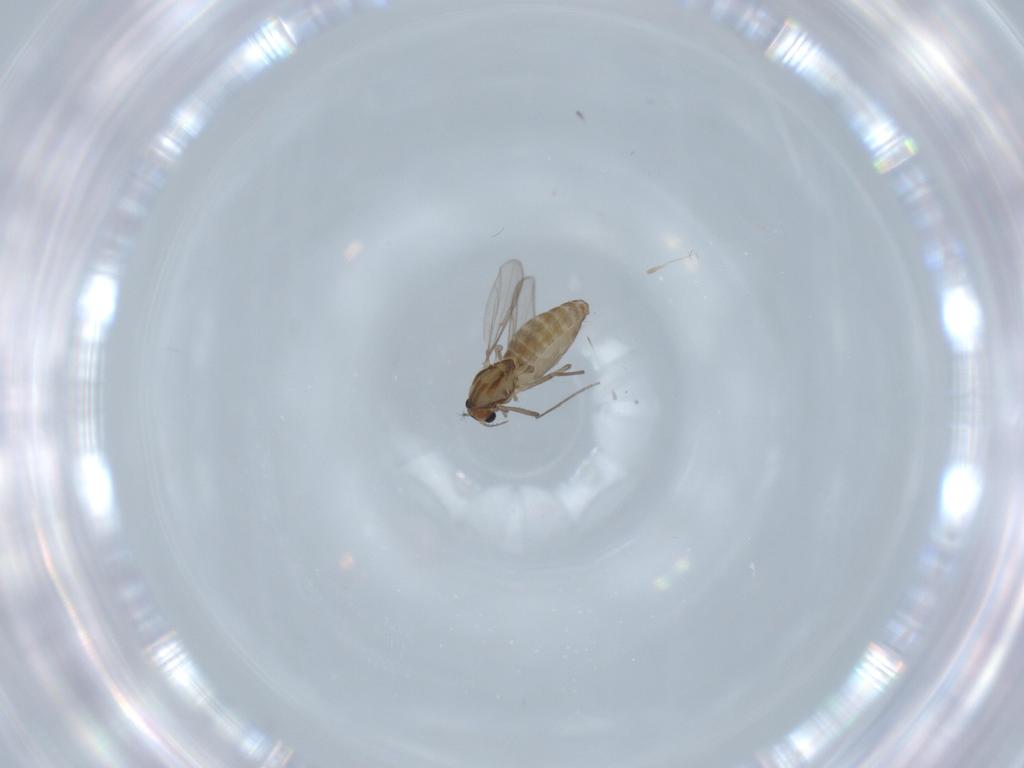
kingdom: Animalia
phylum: Arthropoda
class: Insecta
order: Diptera
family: Chironomidae
